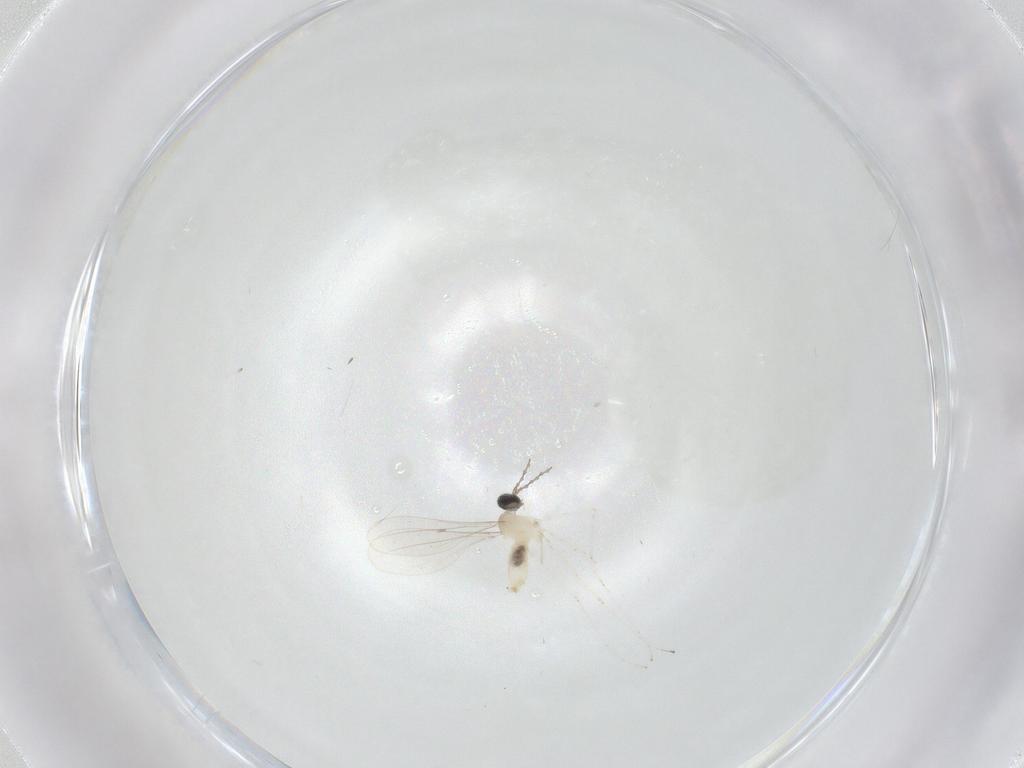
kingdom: Animalia
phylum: Arthropoda
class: Insecta
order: Diptera
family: Cecidomyiidae
